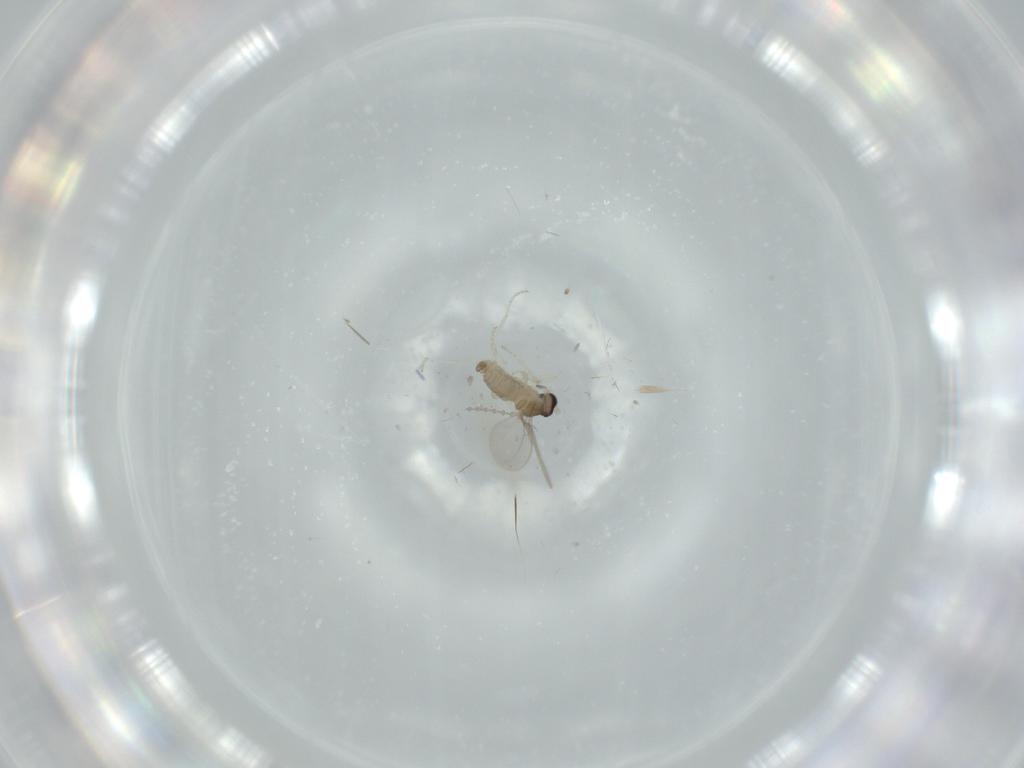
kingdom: Animalia
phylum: Arthropoda
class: Insecta
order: Diptera
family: Cecidomyiidae
